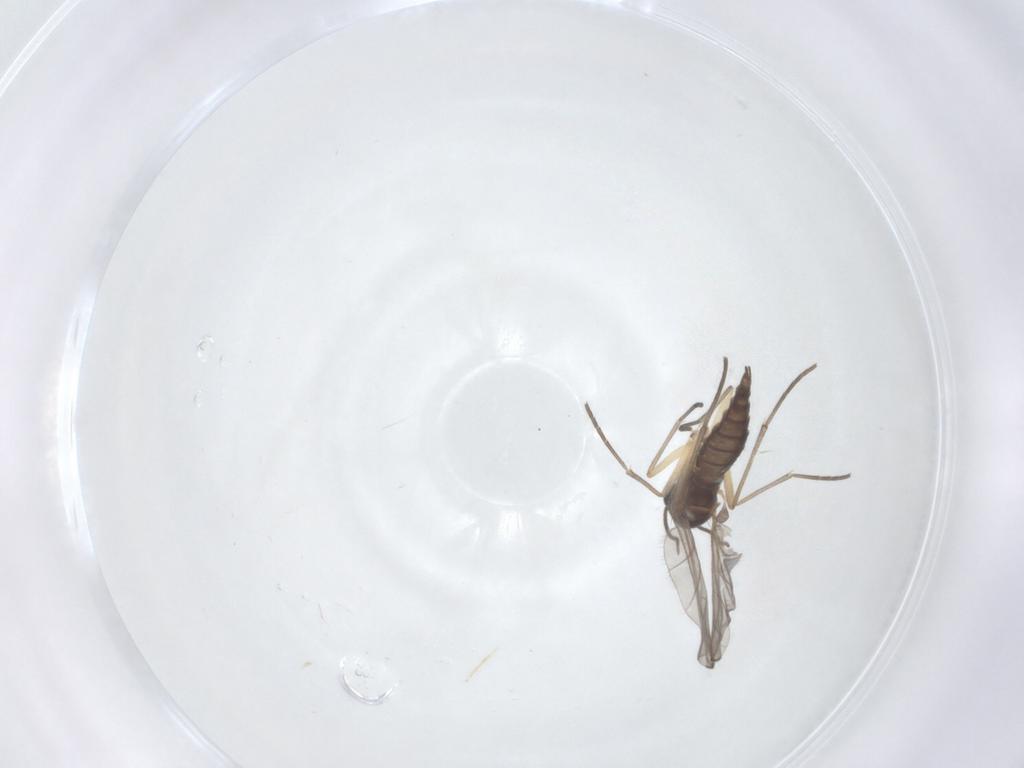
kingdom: Animalia
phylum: Arthropoda
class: Insecta
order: Diptera
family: Sciaridae
